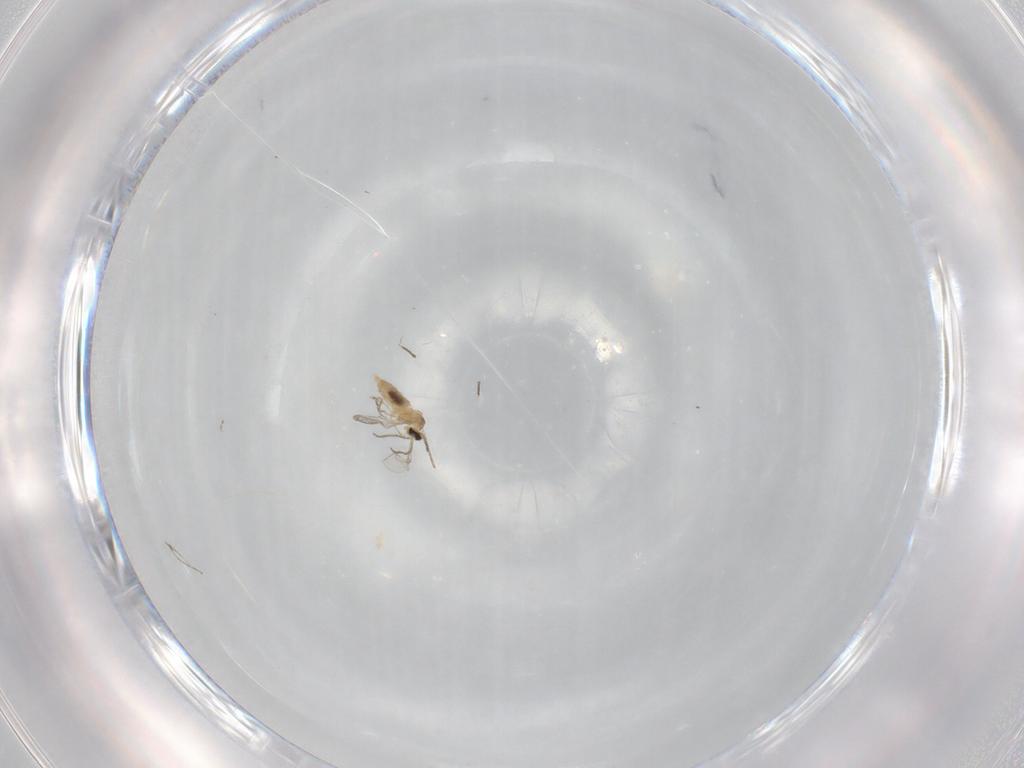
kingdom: Animalia
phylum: Arthropoda
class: Insecta
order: Diptera
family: Cecidomyiidae
